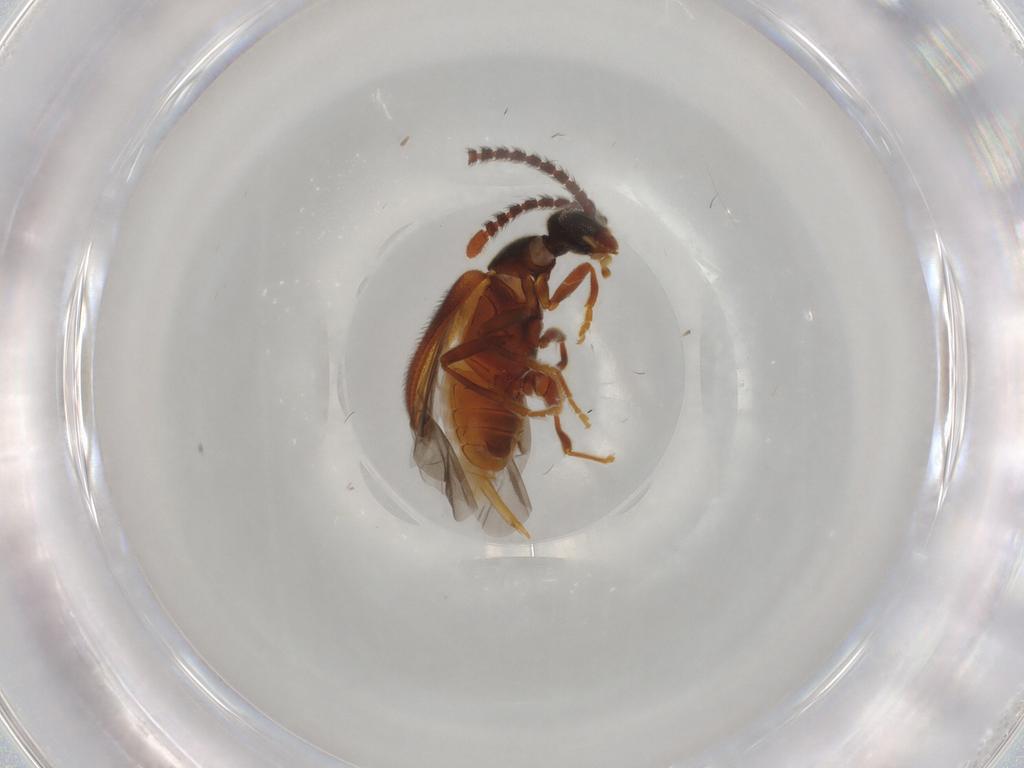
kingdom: Animalia
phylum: Arthropoda
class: Insecta
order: Coleoptera
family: Aderidae
